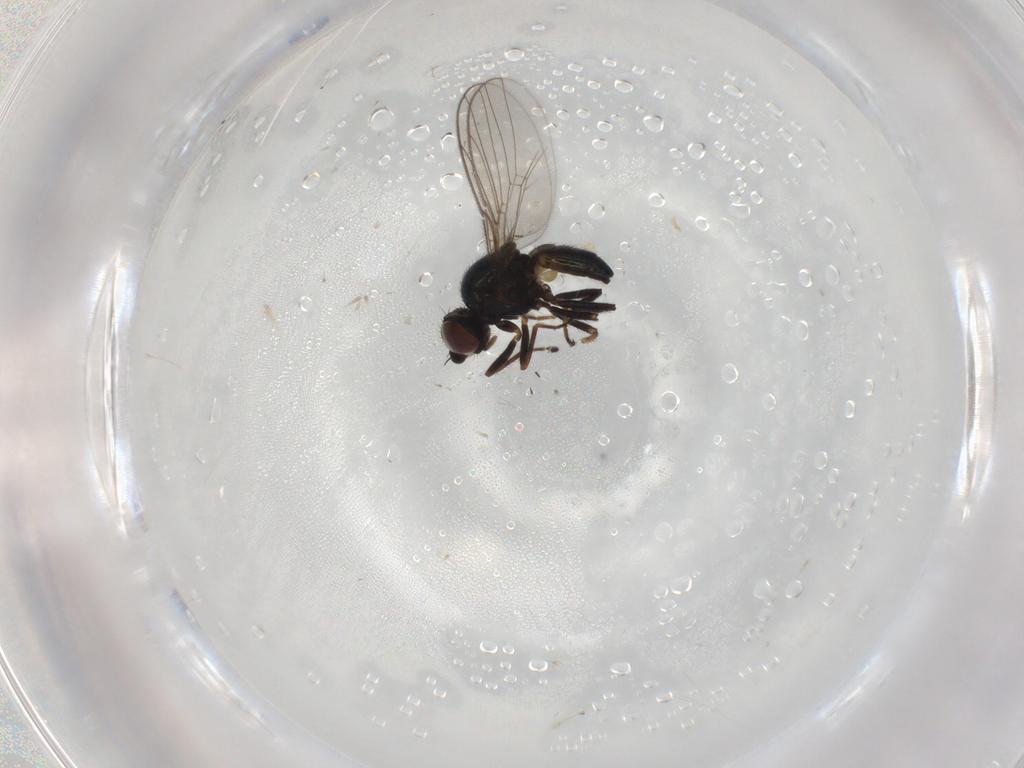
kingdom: Animalia
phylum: Arthropoda
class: Insecta
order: Diptera
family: Chloropidae
